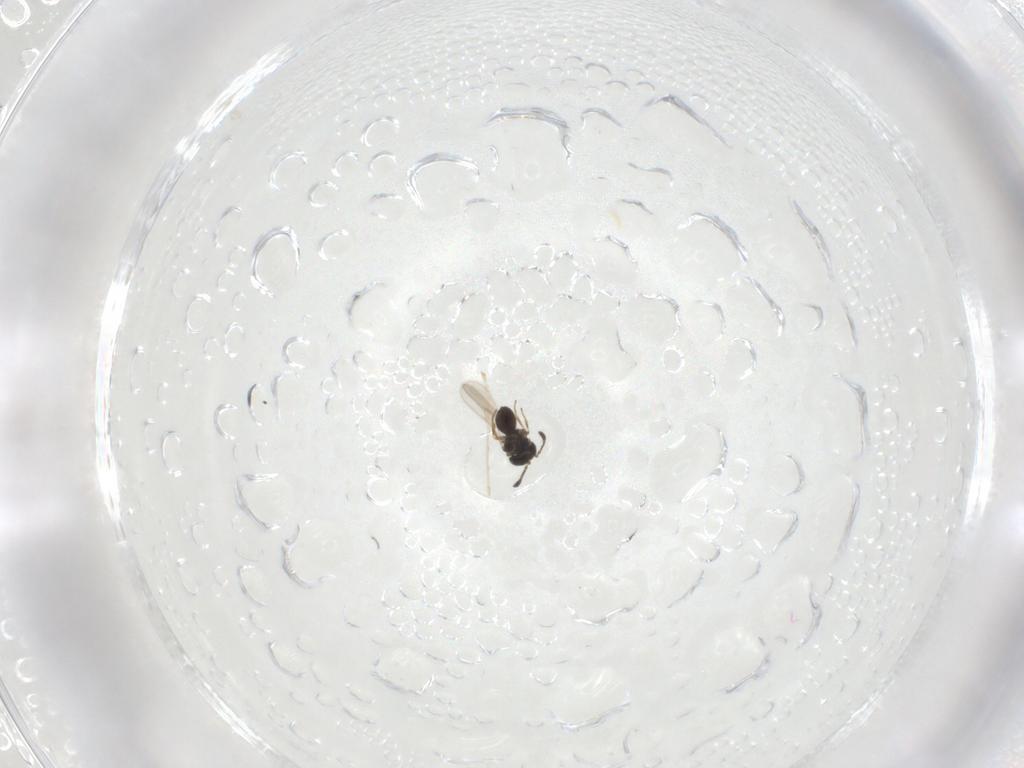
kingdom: Animalia
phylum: Arthropoda
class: Insecta
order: Hymenoptera
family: Scelionidae
